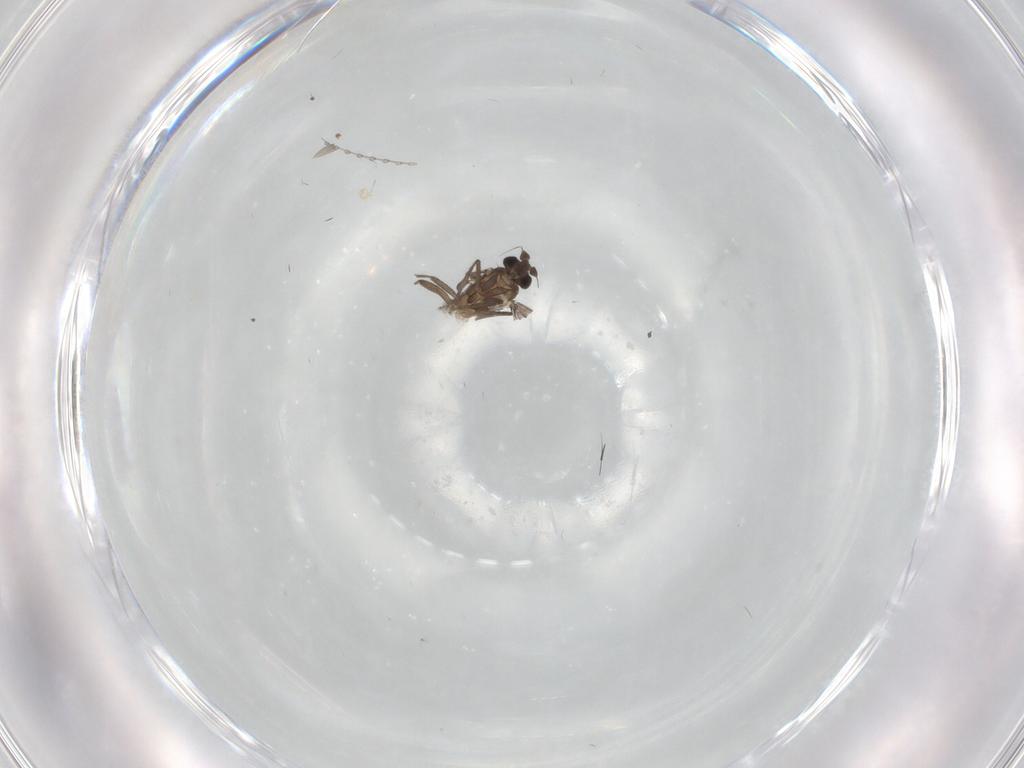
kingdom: Animalia
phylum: Arthropoda
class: Insecta
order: Diptera
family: Phoridae
